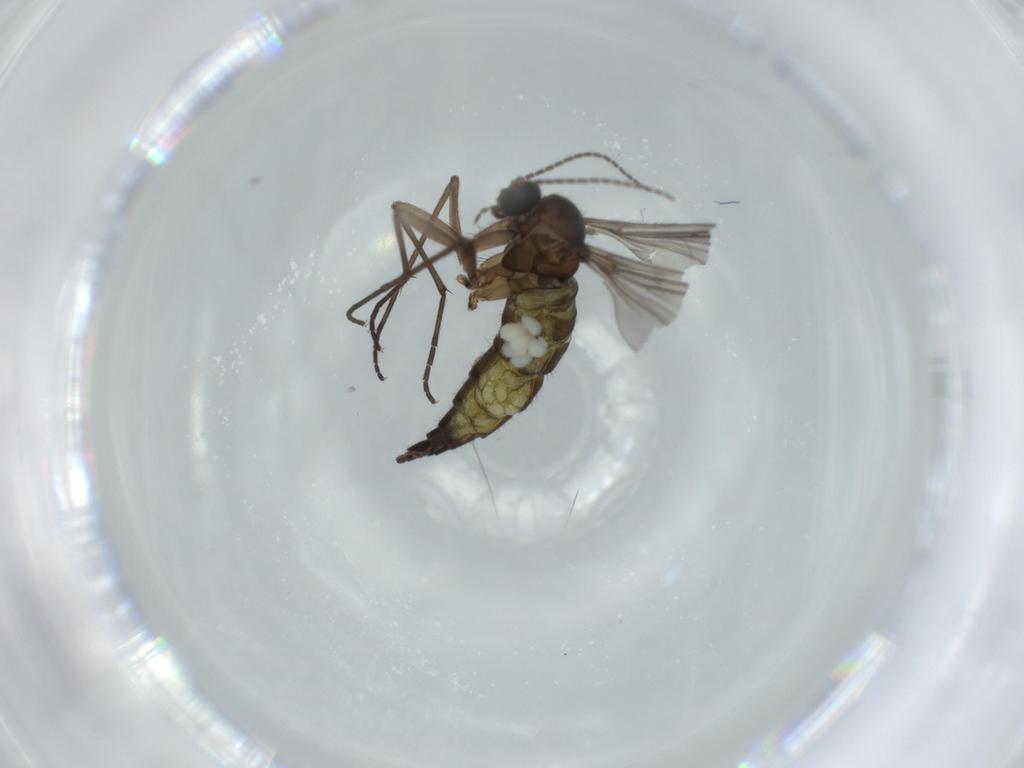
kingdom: Animalia
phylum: Arthropoda
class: Insecta
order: Diptera
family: Sciaridae
